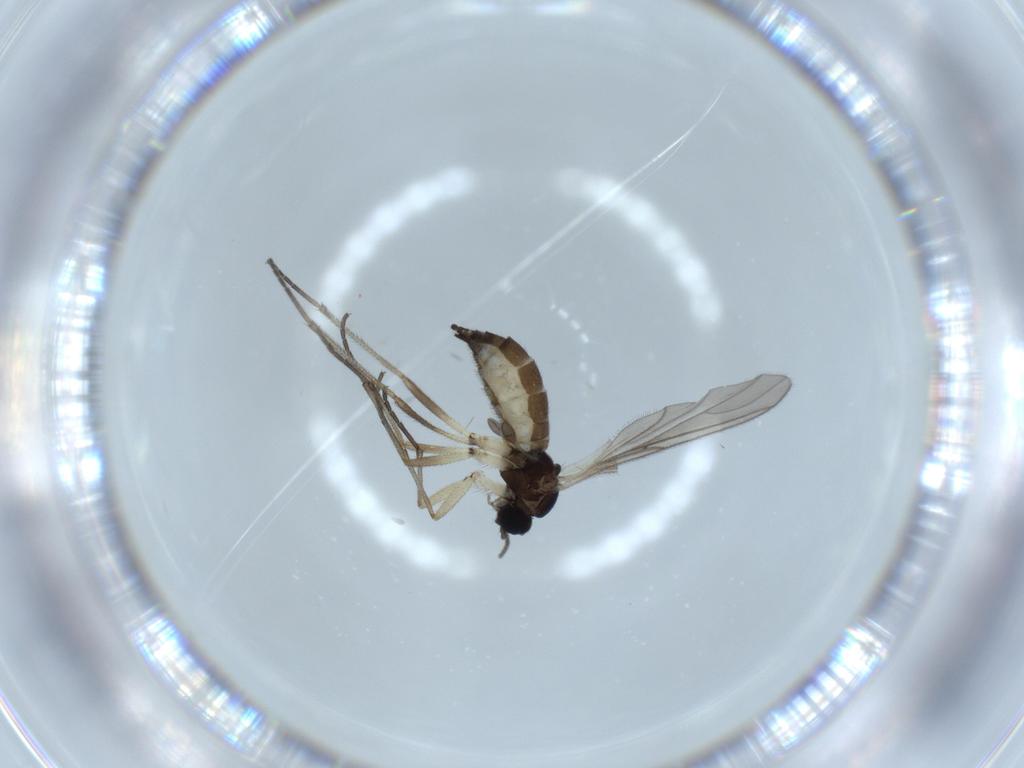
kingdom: Animalia
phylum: Arthropoda
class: Insecta
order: Diptera
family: Sciaridae
